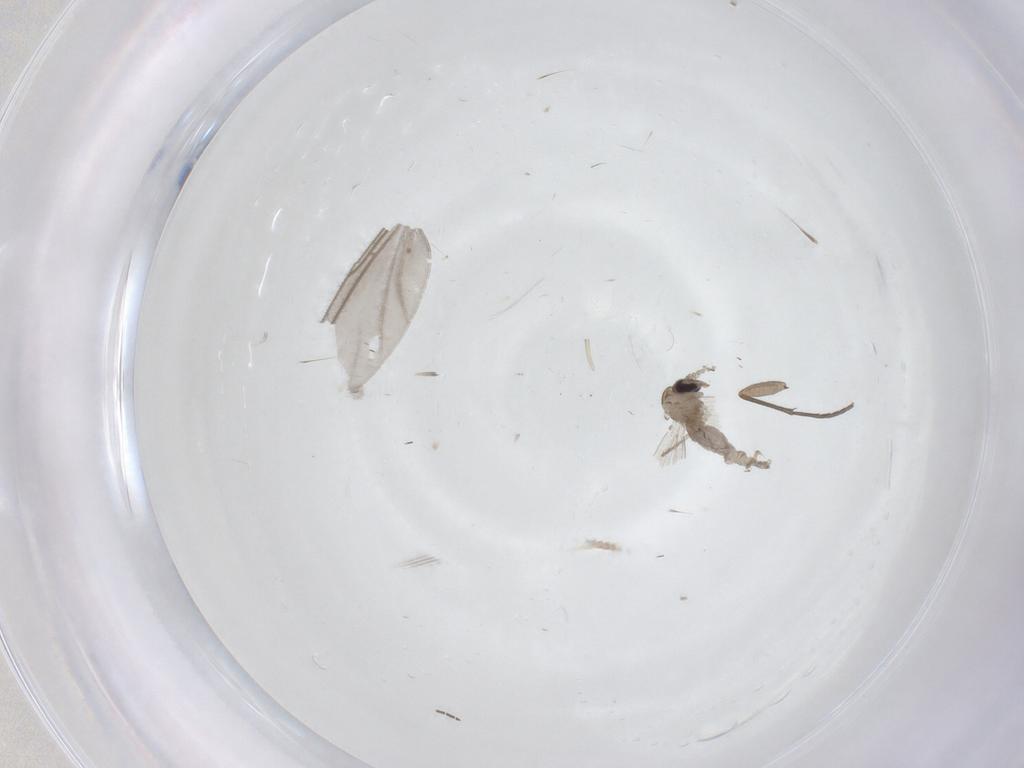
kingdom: Animalia
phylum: Arthropoda
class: Insecta
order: Diptera
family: Psychodidae
